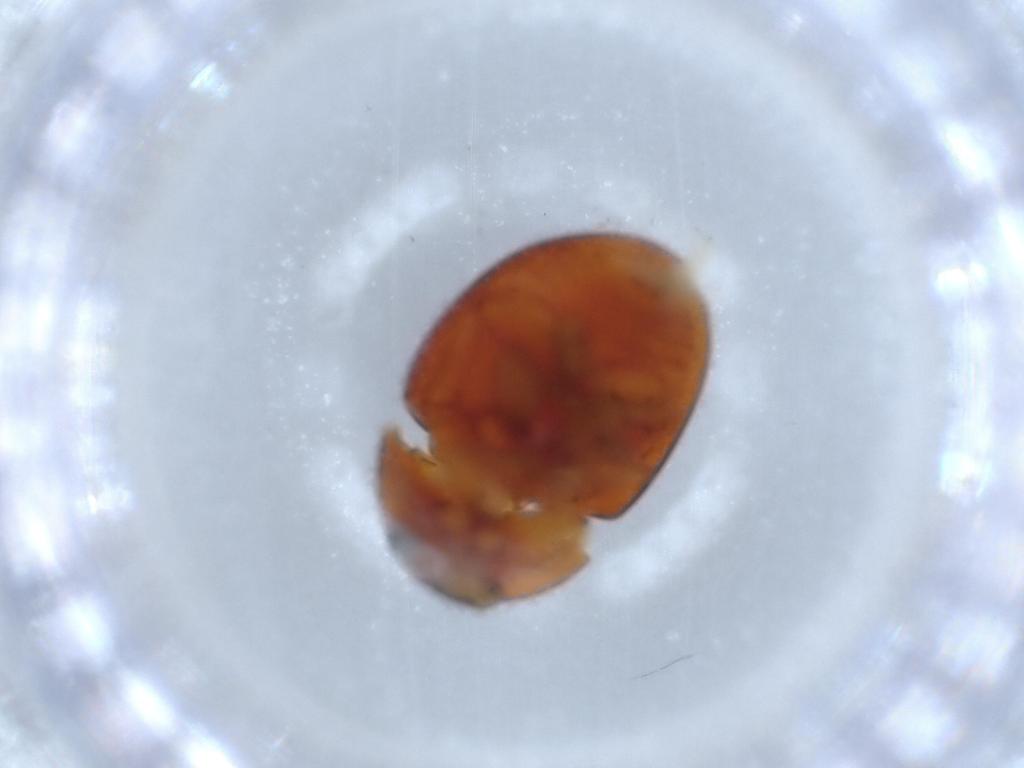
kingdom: Animalia
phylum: Arthropoda
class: Insecta
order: Coleoptera
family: Phalacridae
